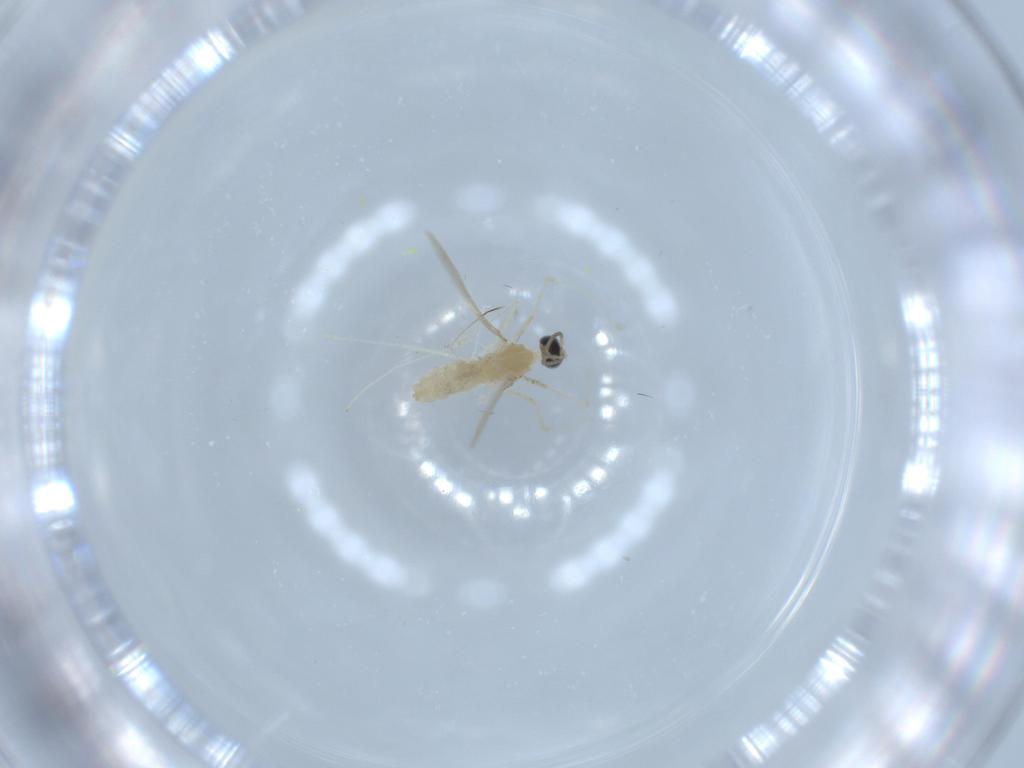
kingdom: Animalia
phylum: Arthropoda
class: Insecta
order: Diptera
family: Cecidomyiidae
